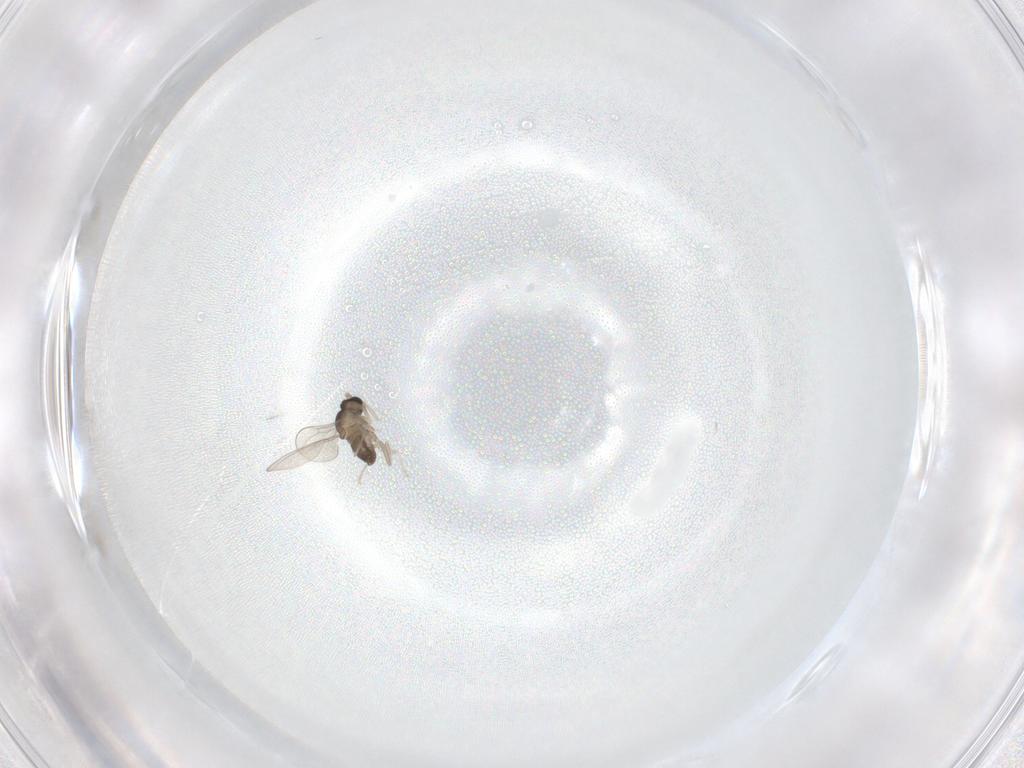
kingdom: Animalia
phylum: Arthropoda
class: Insecta
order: Diptera
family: Cecidomyiidae
